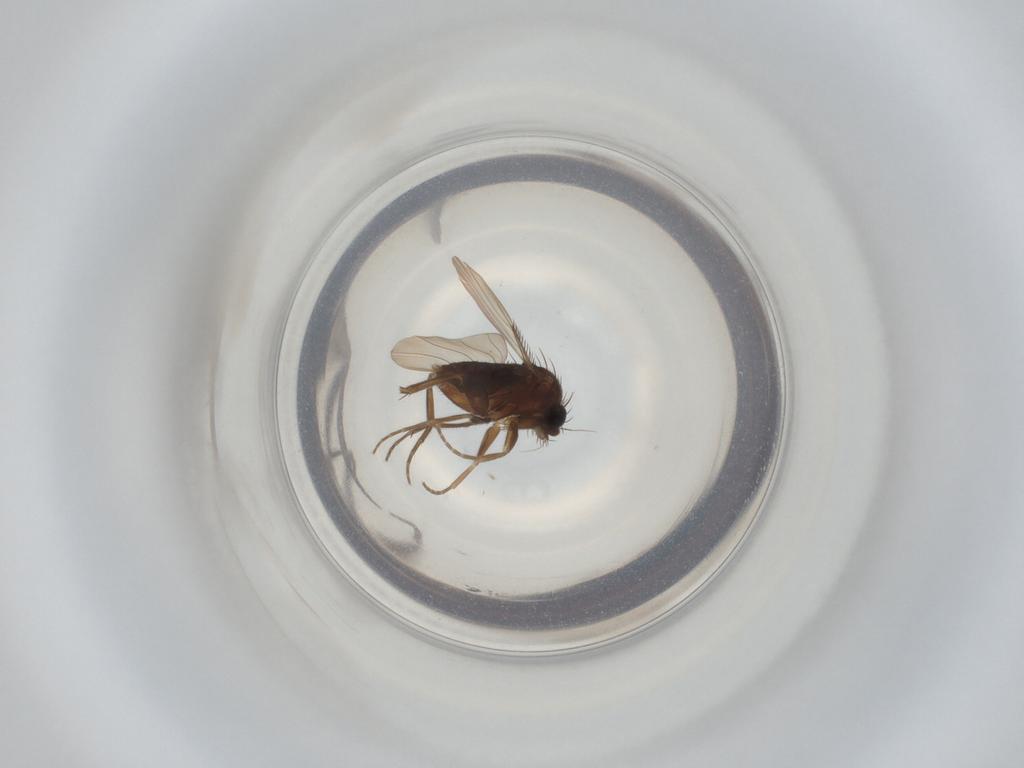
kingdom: Animalia
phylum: Arthropoda
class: Insecta
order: Diptera
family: Phoridae
